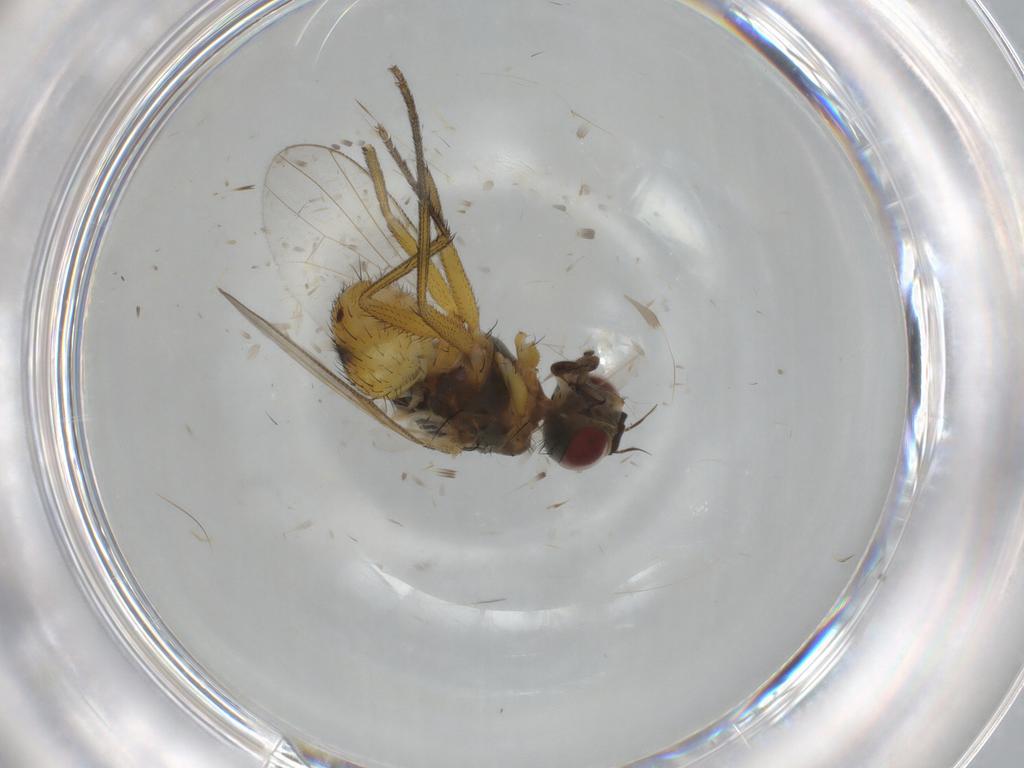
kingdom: Animalia
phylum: Arthropoda
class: Insecta
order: Diptera
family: Muscidae
